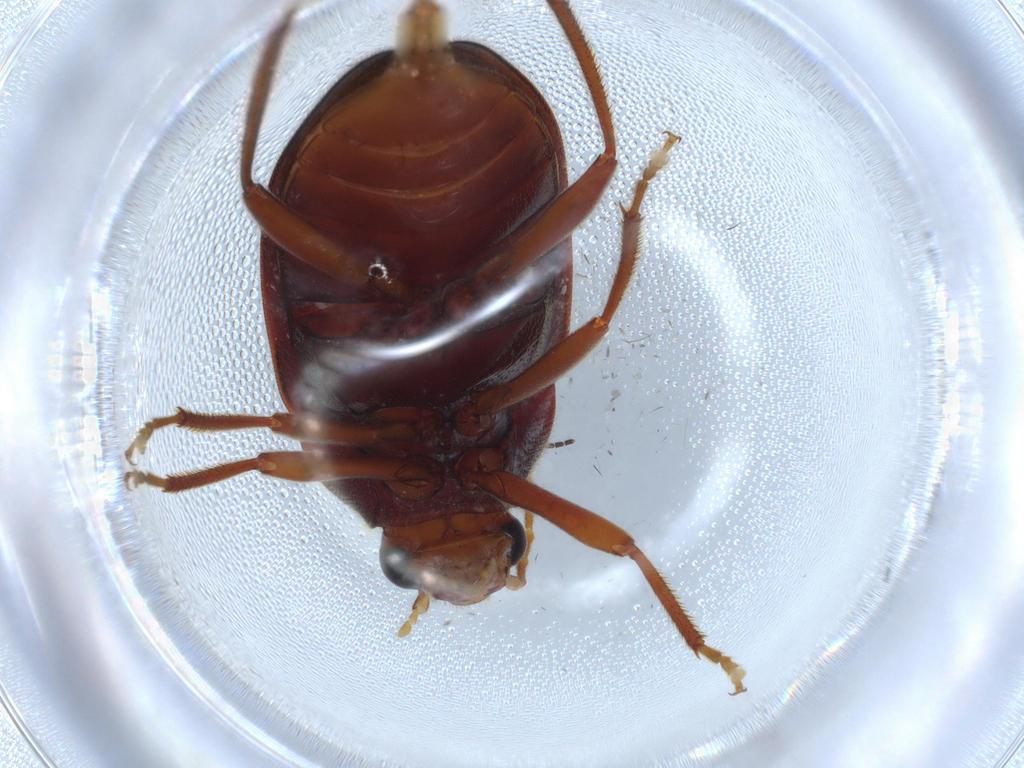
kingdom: Animalia
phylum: Arthropoda
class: Insecta
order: Coleoptera
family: Ptilodactylidae
